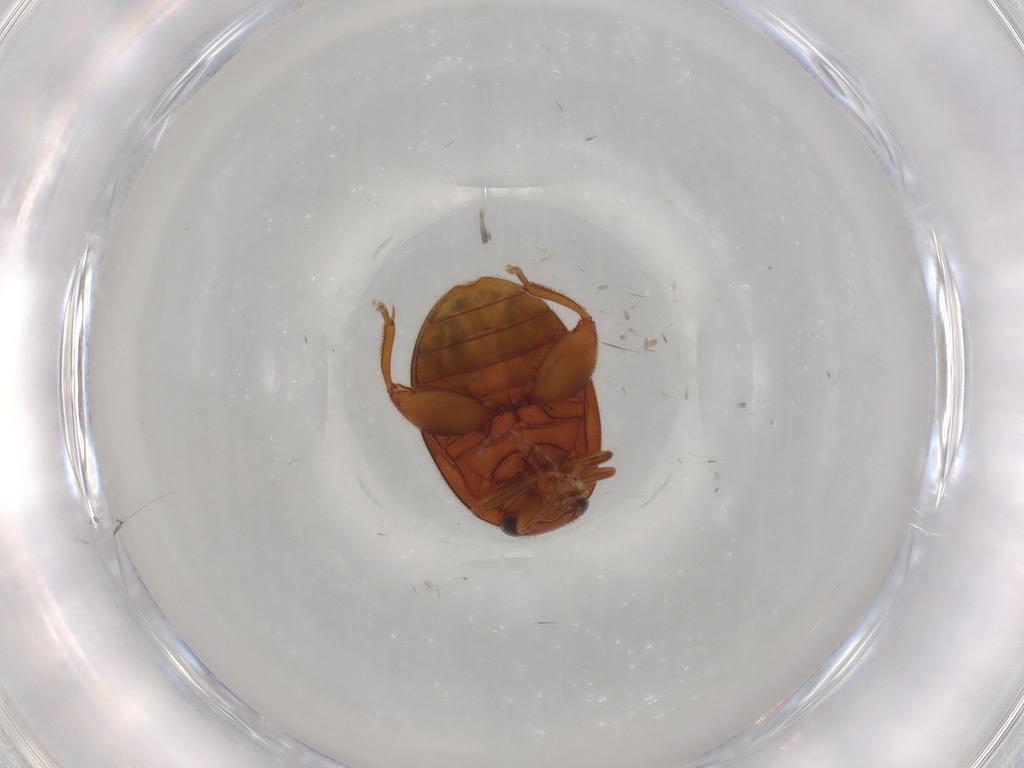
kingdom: Animalia
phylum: Arthropoda
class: Insecta
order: Coleoptera
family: Scirtidae
